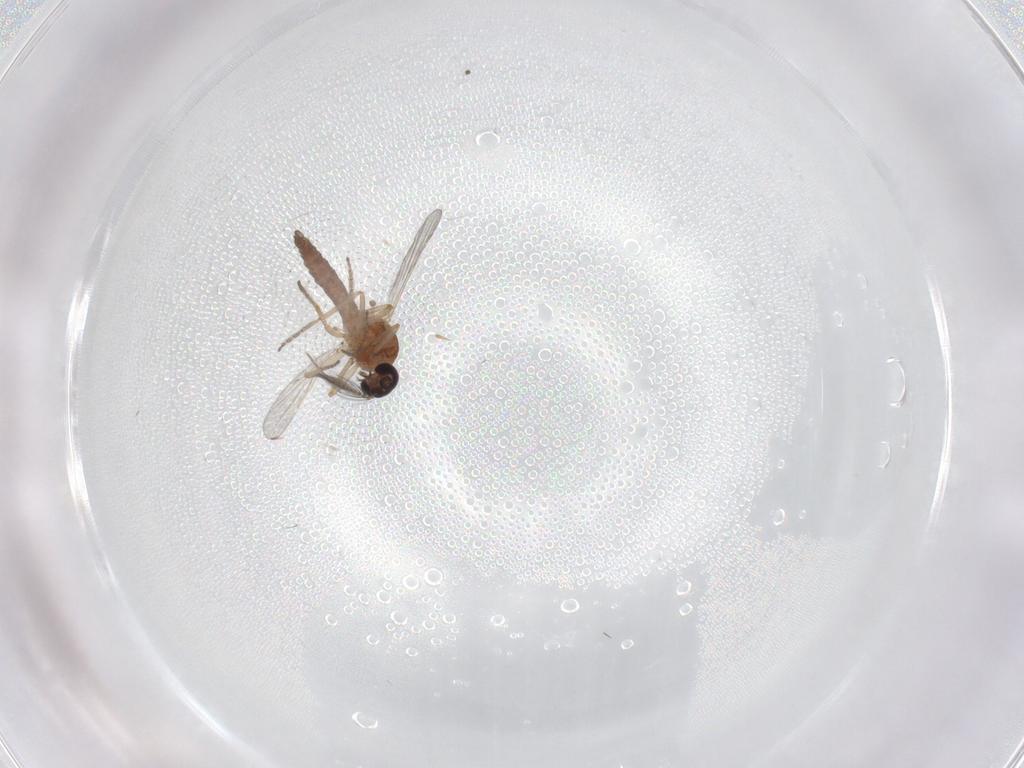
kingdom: Animalia
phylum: Arthropoda
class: Insecta
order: Diptera
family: Ceratopogonidae
